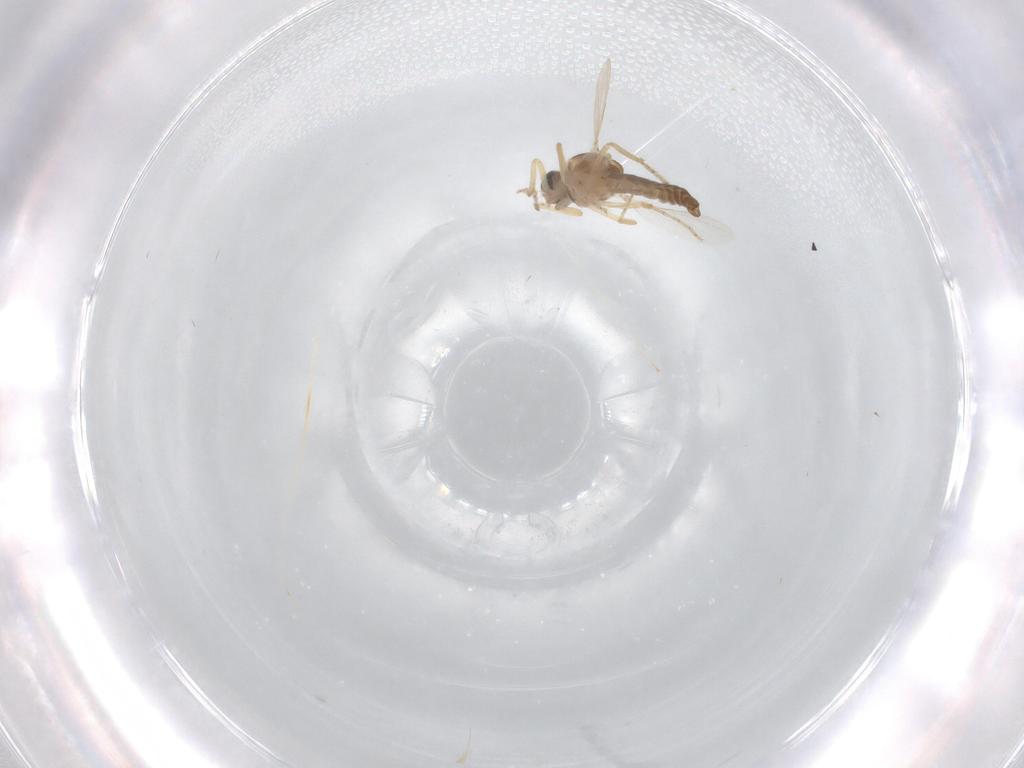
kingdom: Animalia
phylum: Arthropoda
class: Insecta
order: Diptera
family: Ceratopogonidae
